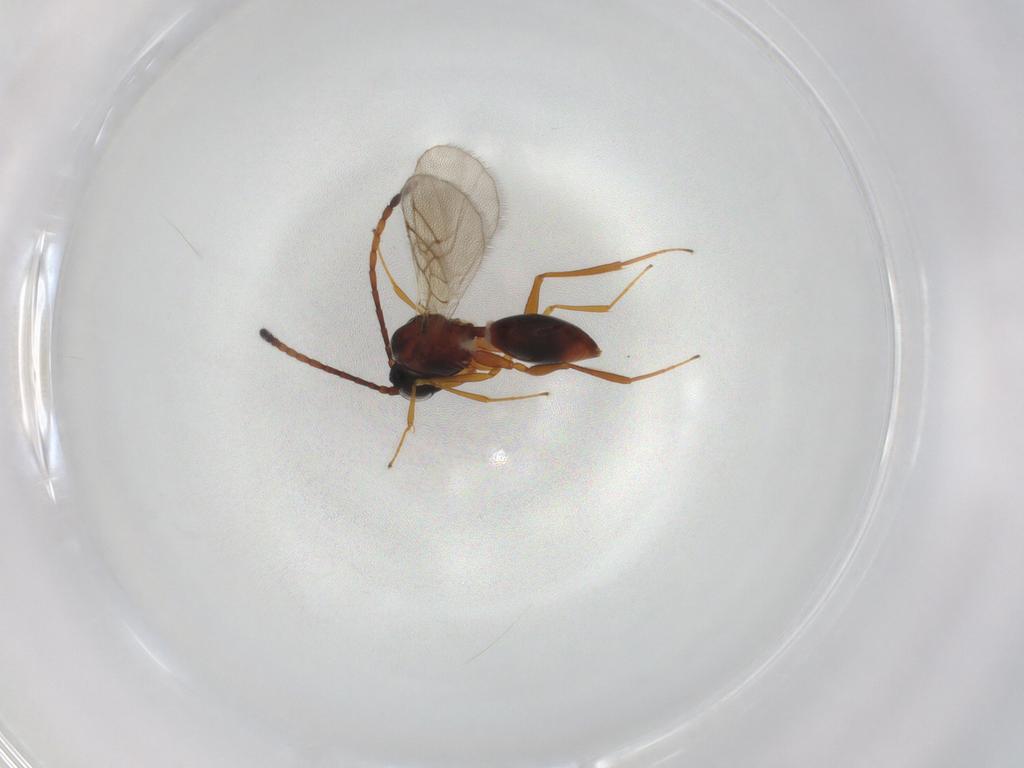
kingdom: Animalia
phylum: Arthropoda
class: Insecta
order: Hymenoptera
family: Figitidae
